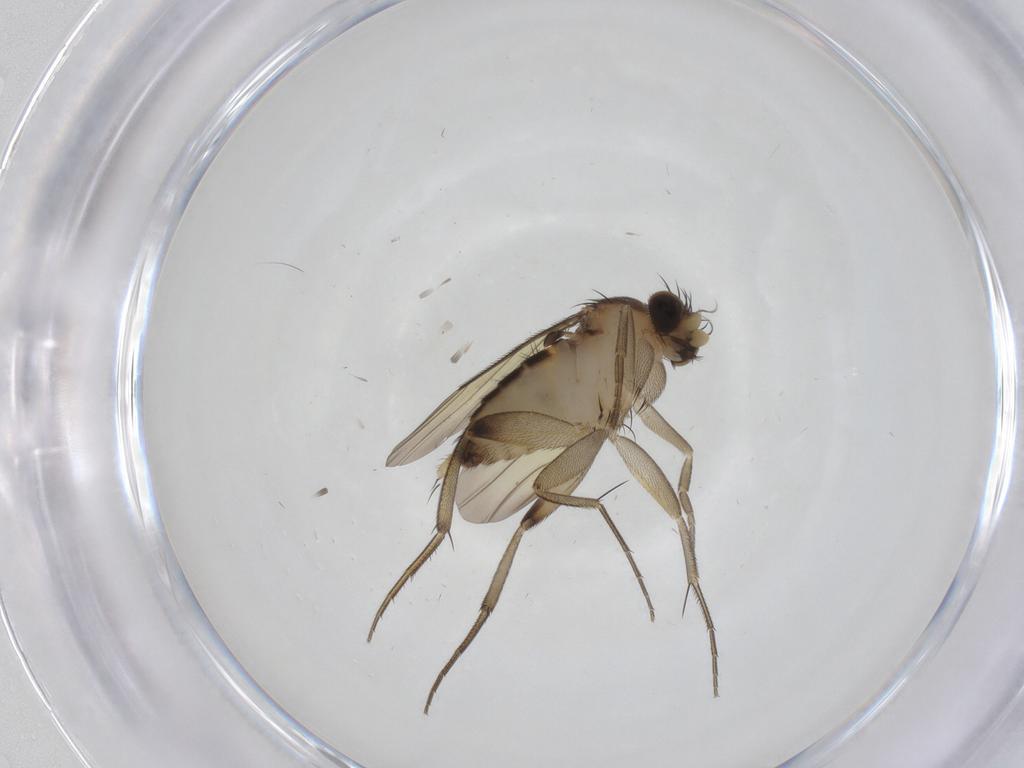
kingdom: Animalia
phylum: Arthropoda
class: Insecta
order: Diptera
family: Phoridae
